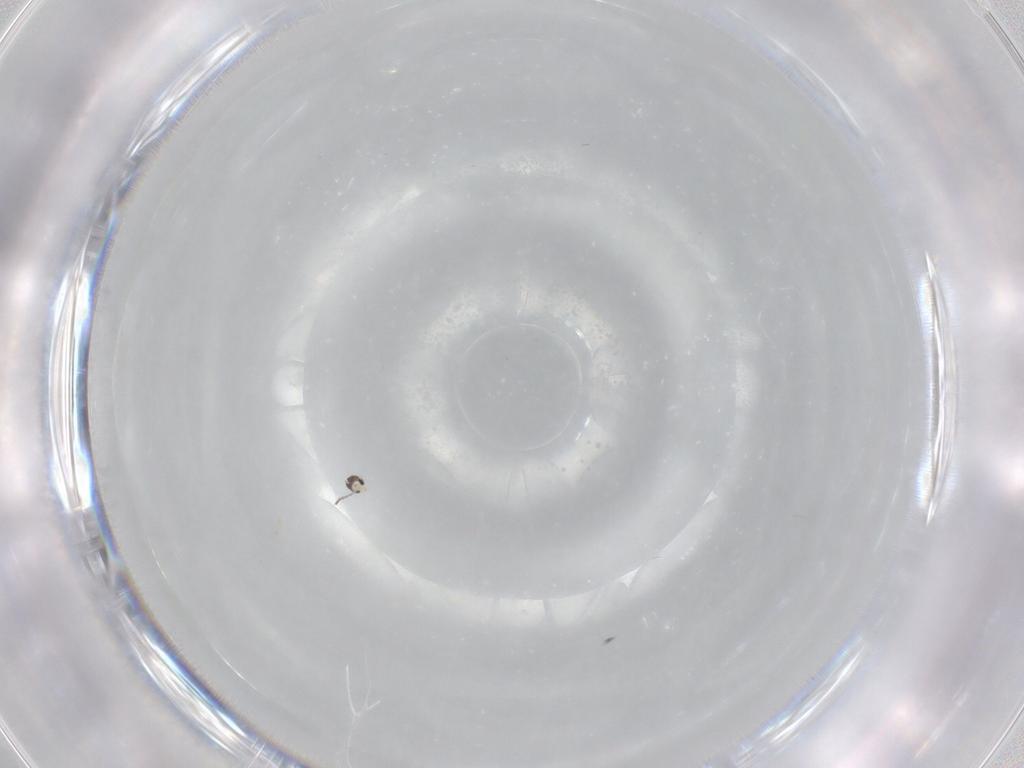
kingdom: Animalia
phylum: Arthropoda
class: Insecta
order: Diptera
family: Cecidomyiidae
